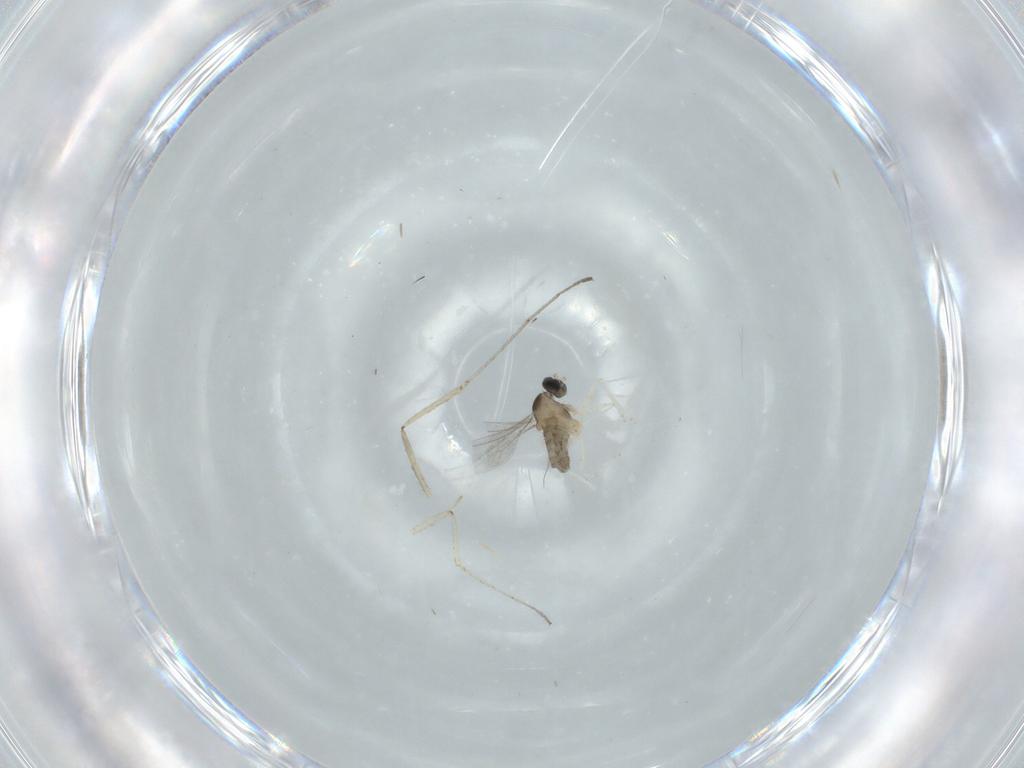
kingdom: Animalia
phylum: Arthropoda
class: Insecta
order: Diptera
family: Cecidomyiidae
